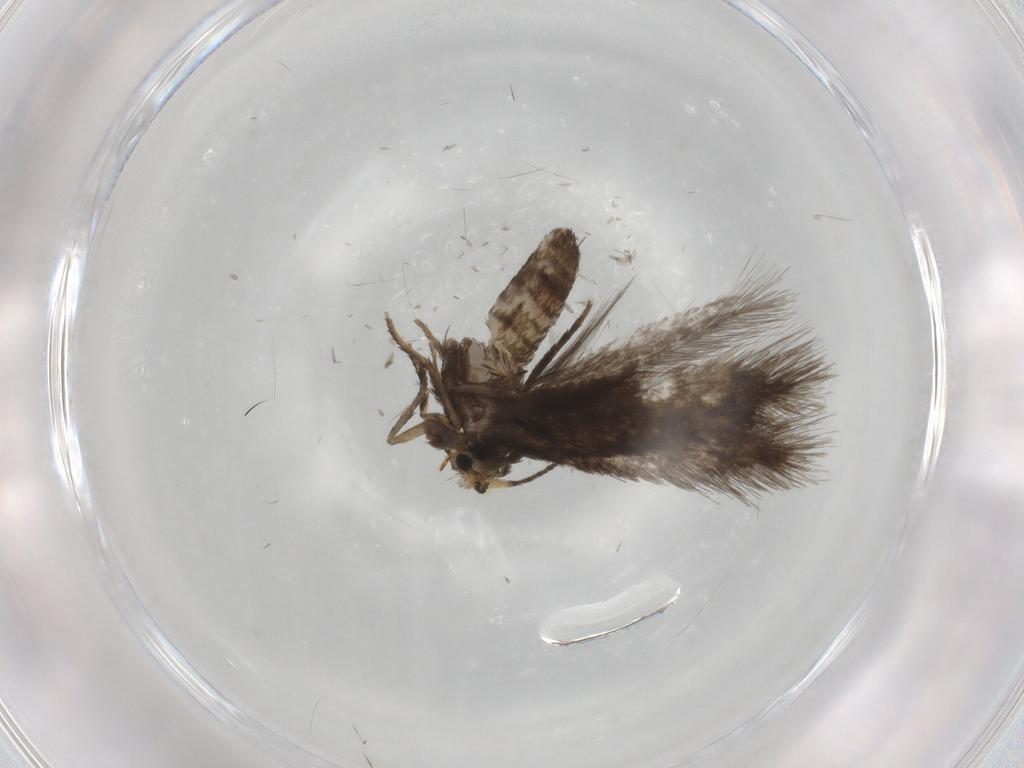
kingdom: Animalia
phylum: Arthropoda
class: Insecta
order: Lepidoptera
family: Nepticulidae
